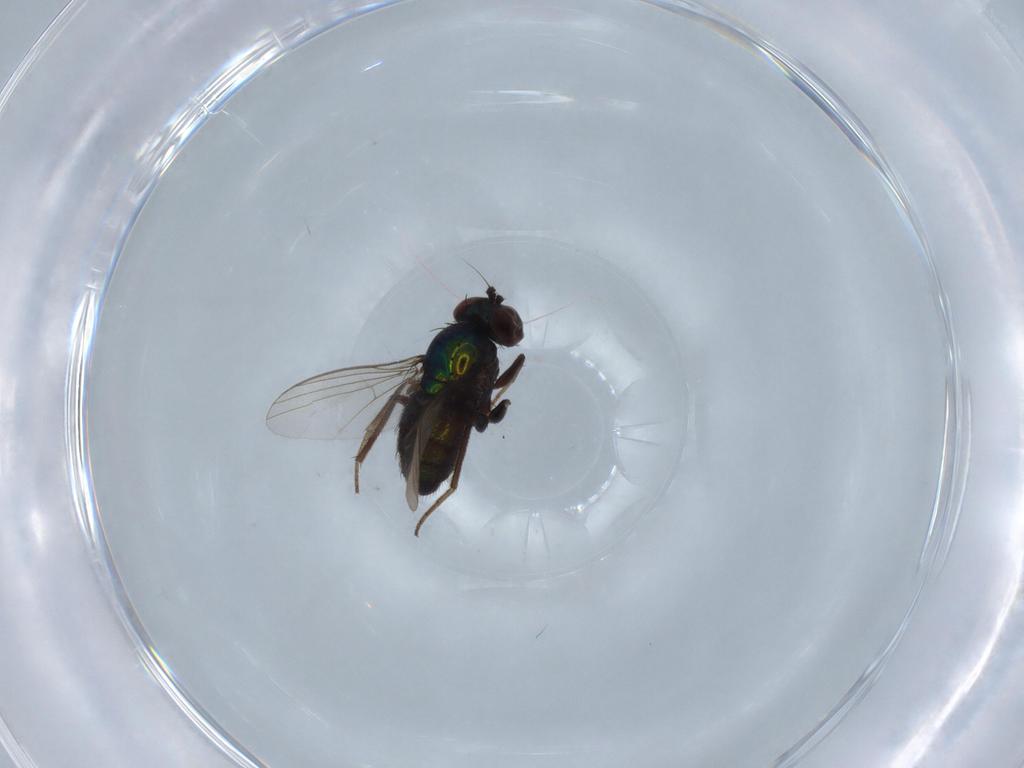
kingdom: Animalia
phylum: Arthropoda
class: Insecta
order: Diptera
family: Dolichopodidae
